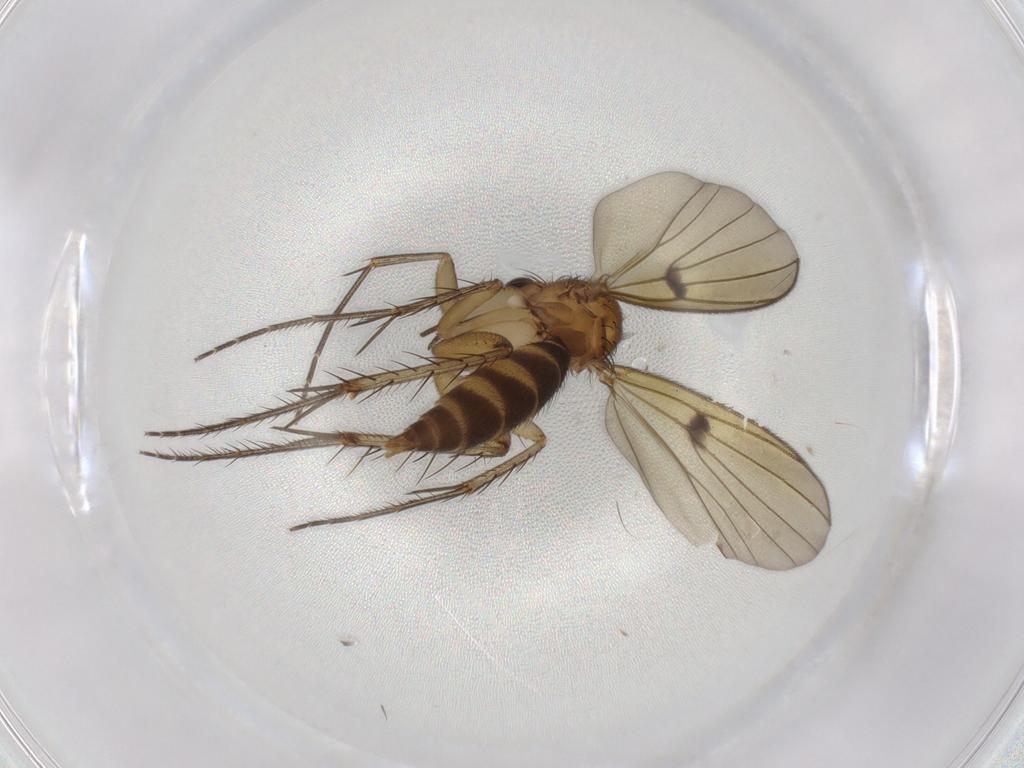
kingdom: Animalia
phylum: Arthropoda
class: Insecta
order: Diptera
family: Mycetophilidae
